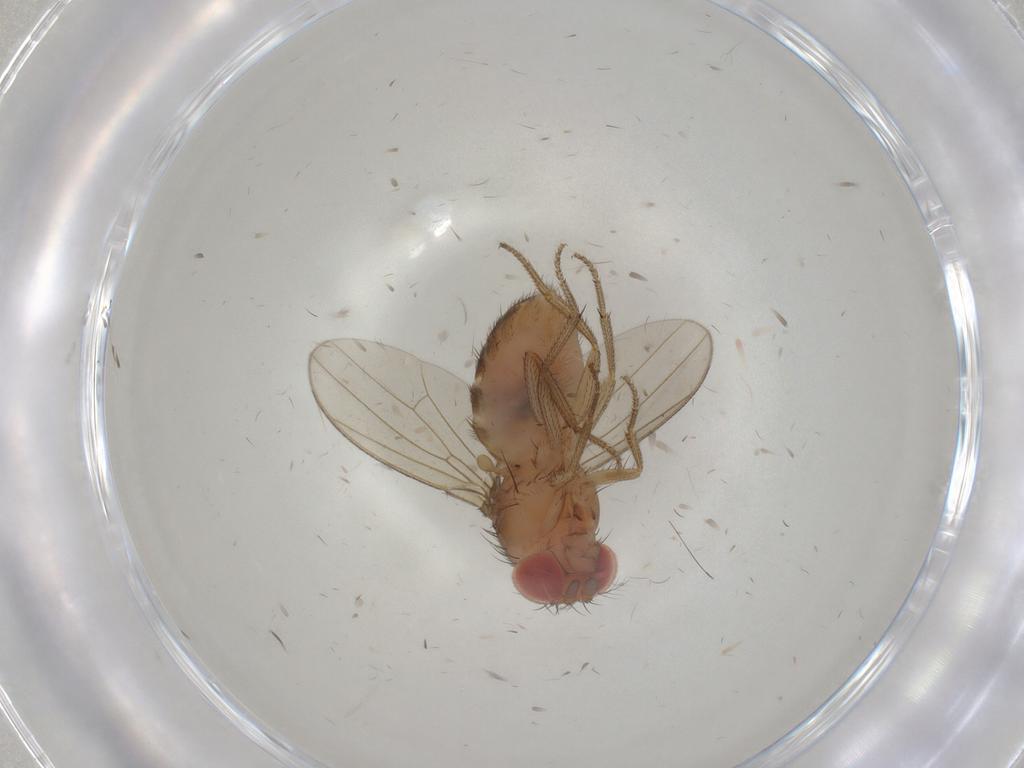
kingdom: Animalia
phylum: Arthropoda
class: Insecta
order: Diptera
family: Drosophilidae
